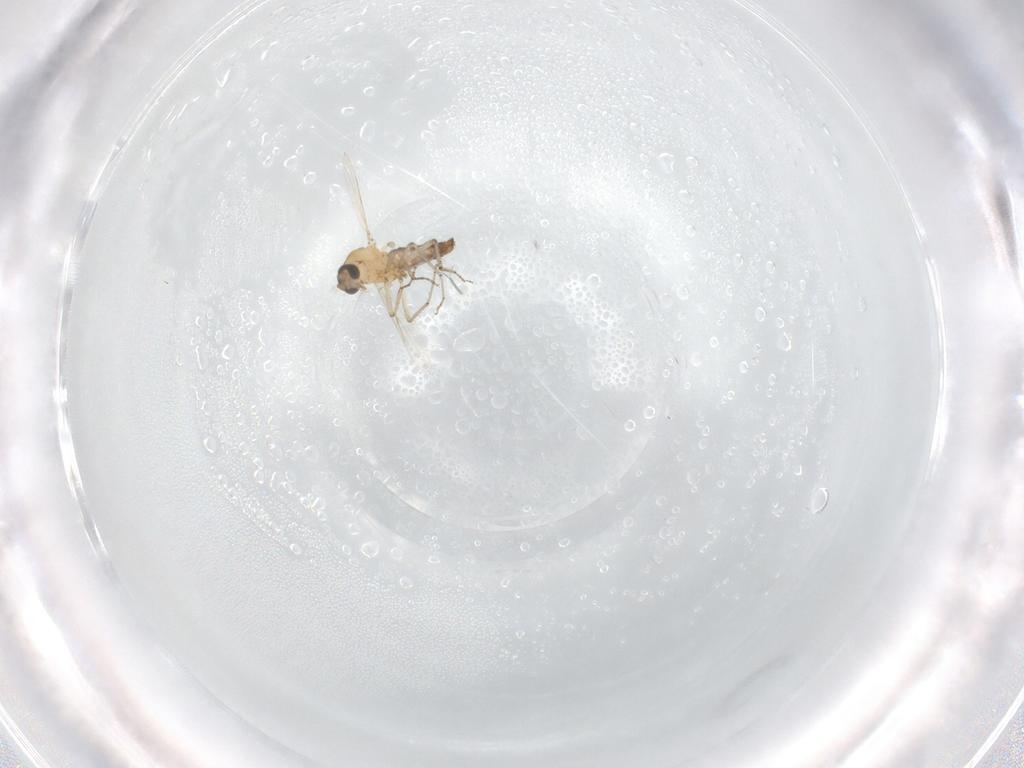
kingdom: Animalia
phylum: Arthropoda
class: Insecta
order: Diptera
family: Ceratopogonidae
